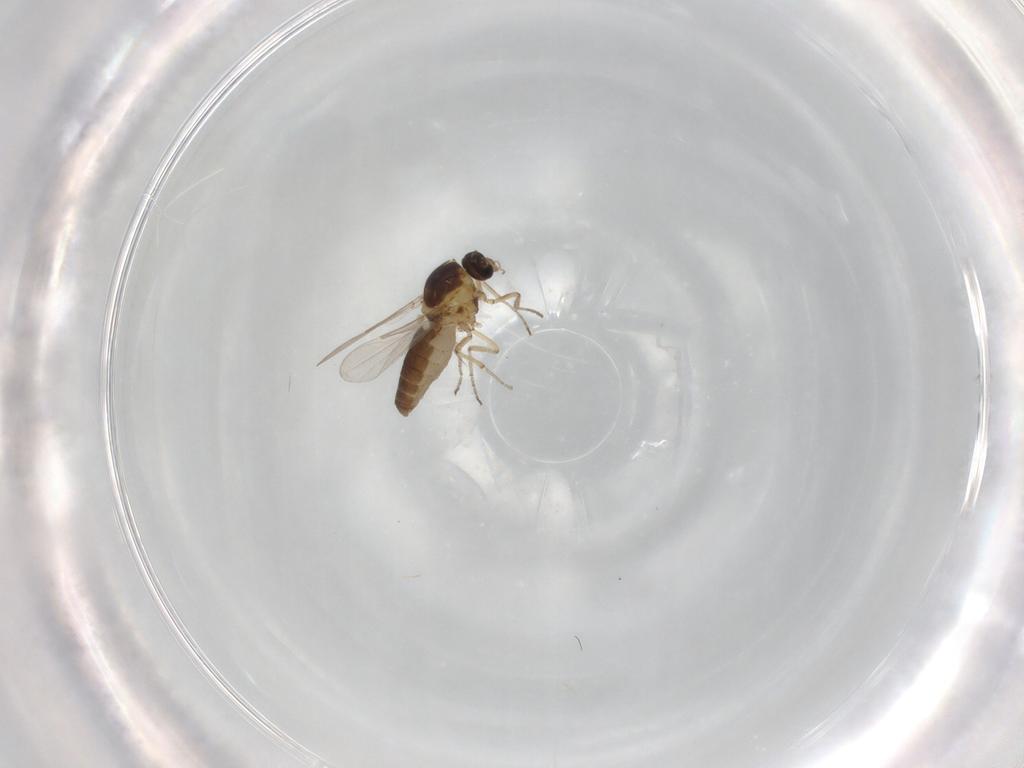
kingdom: Animalia
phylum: Arthropoda
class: Insecta
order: Diptera
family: Ceratopogonidae
